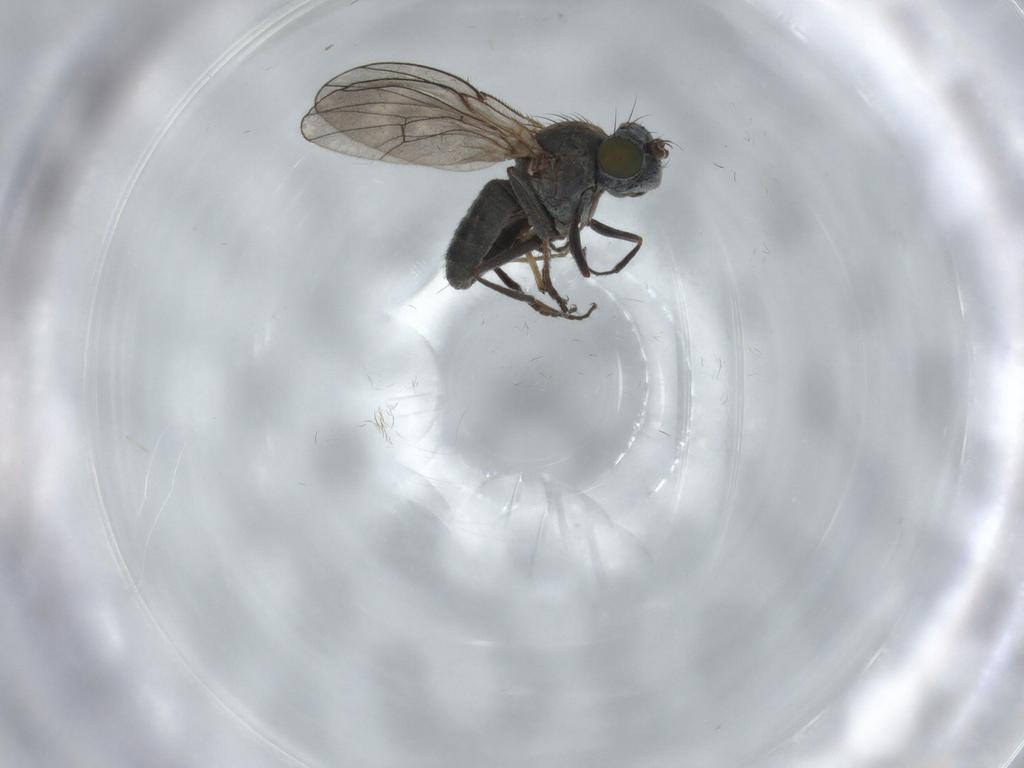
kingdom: Animalia
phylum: Arthropoda
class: Insecta
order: Diptera
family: Ephydridae
